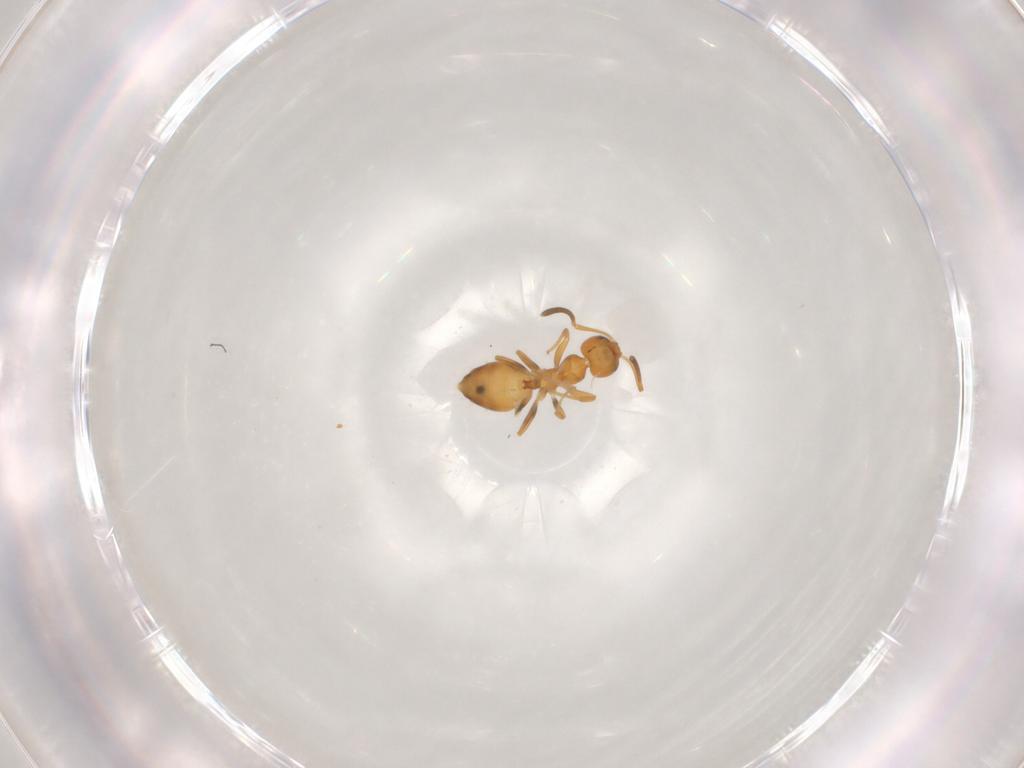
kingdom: Animalia
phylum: Arthropoda
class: Insecta
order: Hymenoptera
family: Formicidae
